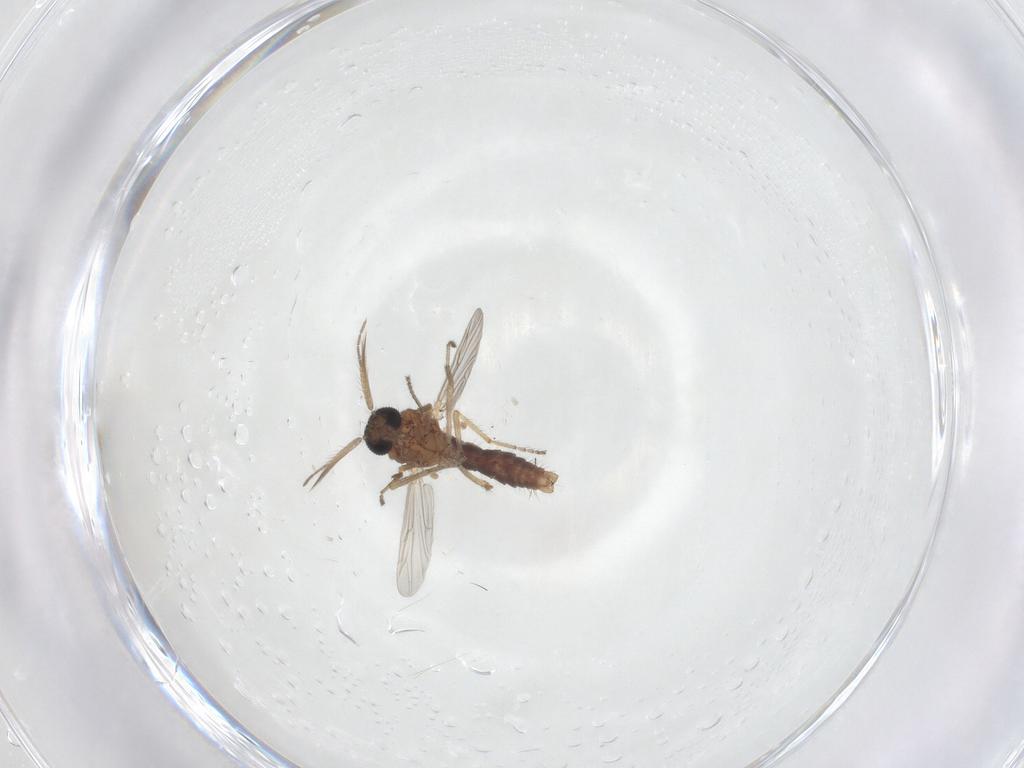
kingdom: Animalia
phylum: Arthropoda
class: Insecta
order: Diptera
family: Ceratopogonidae
